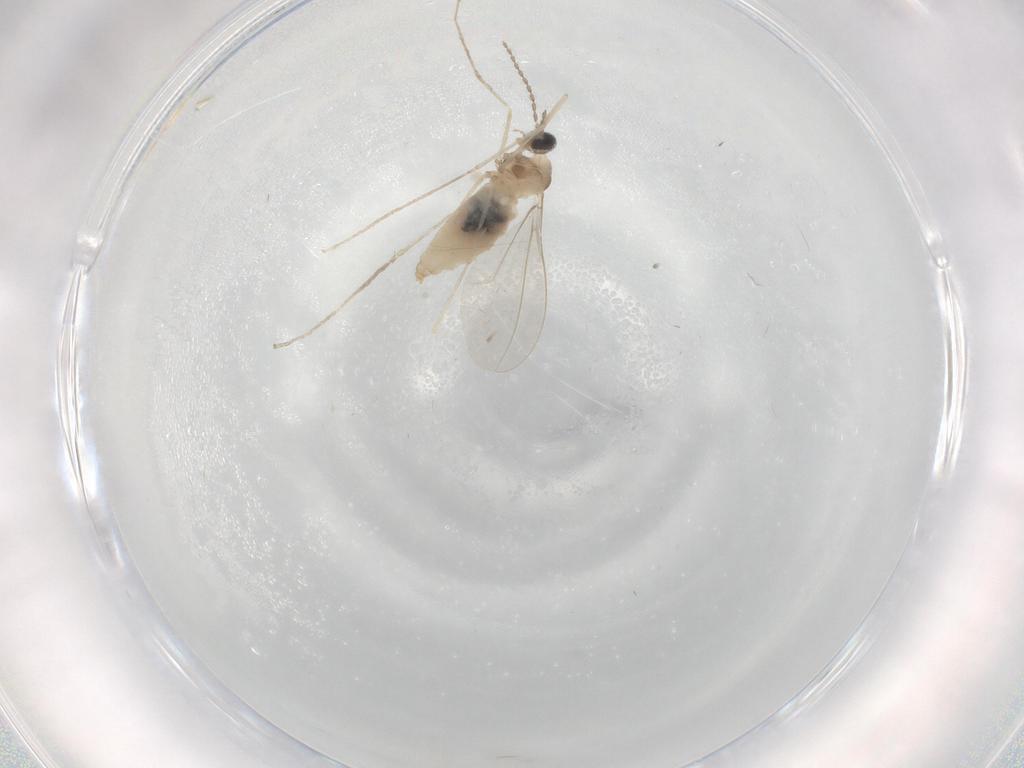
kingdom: Animalia
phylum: Arthropoda
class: Insecta
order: Diptera
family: Cecidomyiidae
